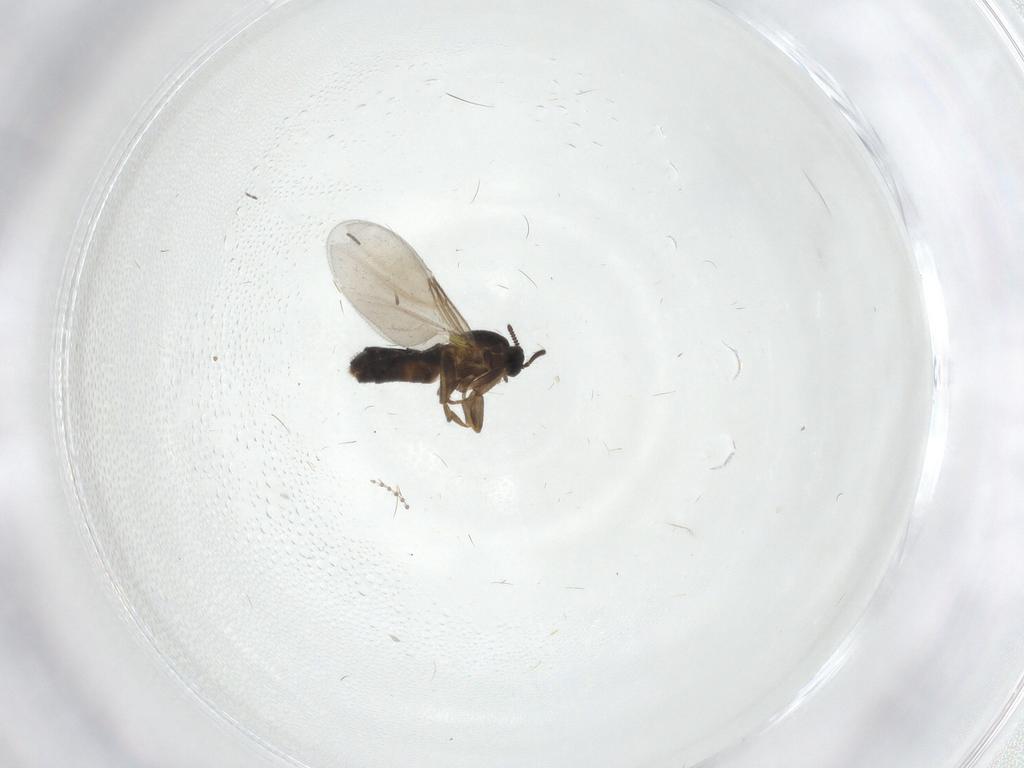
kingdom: Animalia
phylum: Arthropoda
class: Insecta
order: Diptera
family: Scatopsidae
